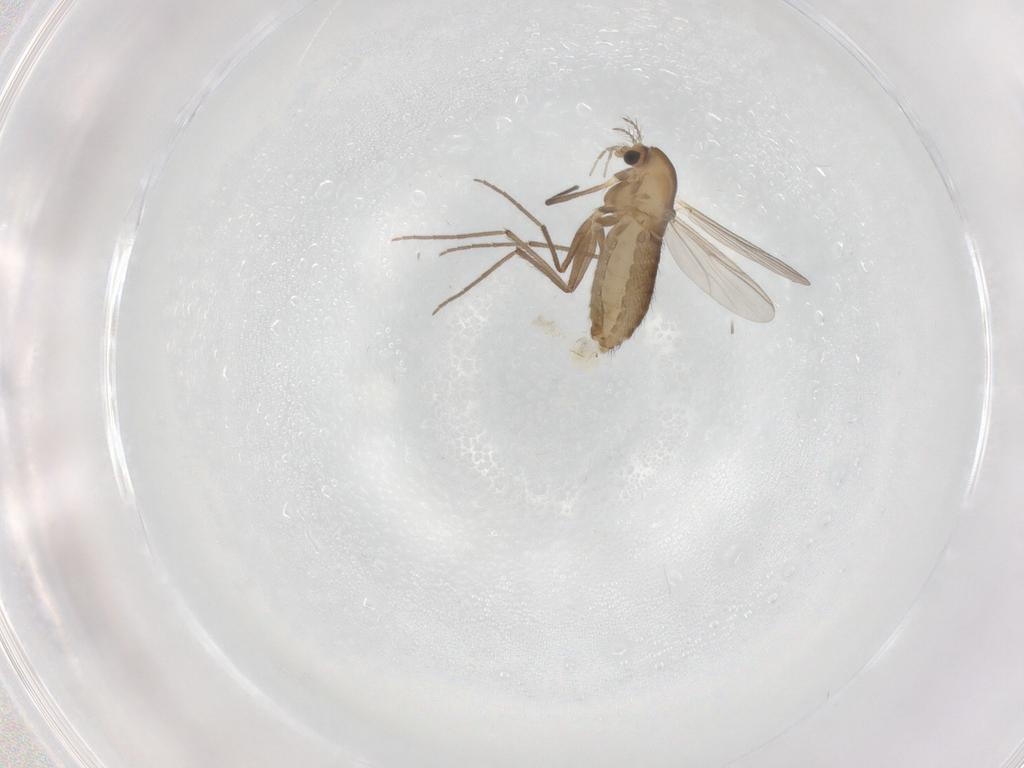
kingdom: Animalia
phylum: Arthropoda
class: Insecta
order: Diptera
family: Chironomidae
